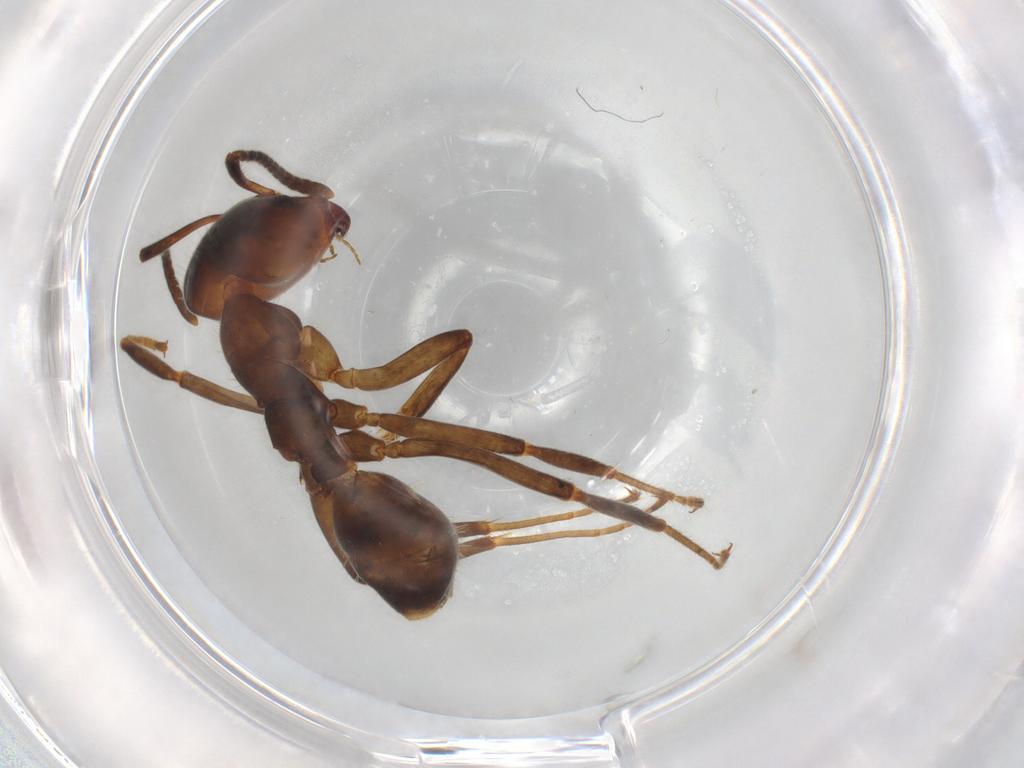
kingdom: Animalia
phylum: Arthropoda
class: Insecta
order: Hymenoptera
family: Formicidae
